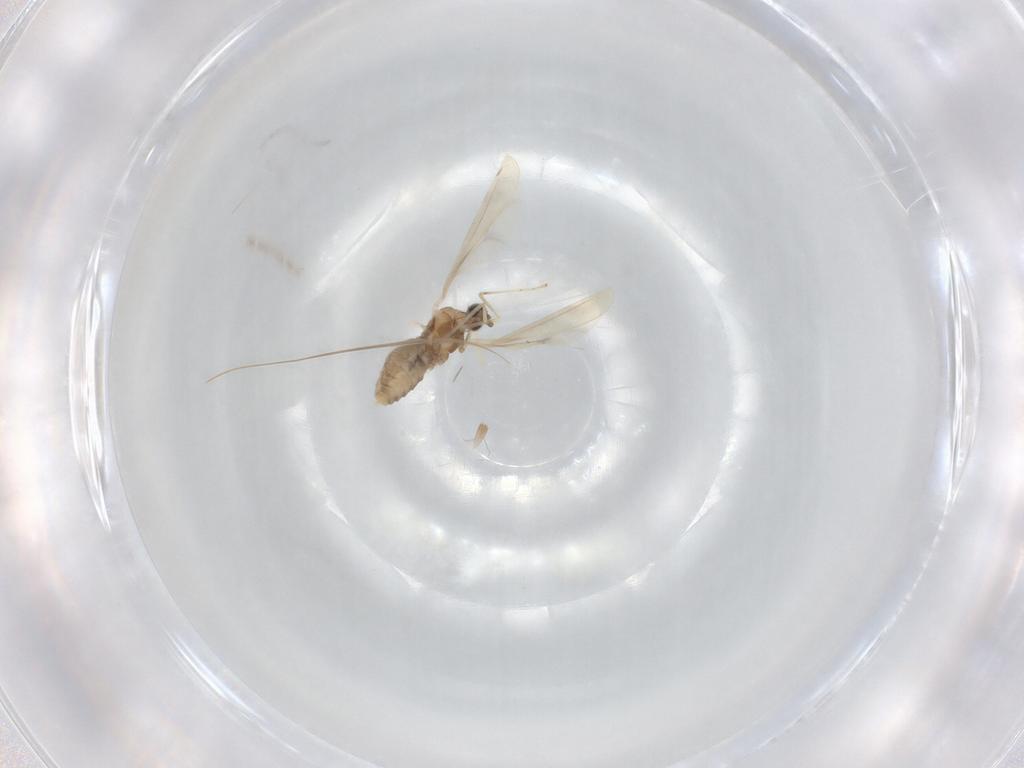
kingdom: Animalia
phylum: Arthropoda
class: Insecta
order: Diptera
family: Cecidomyiidae
